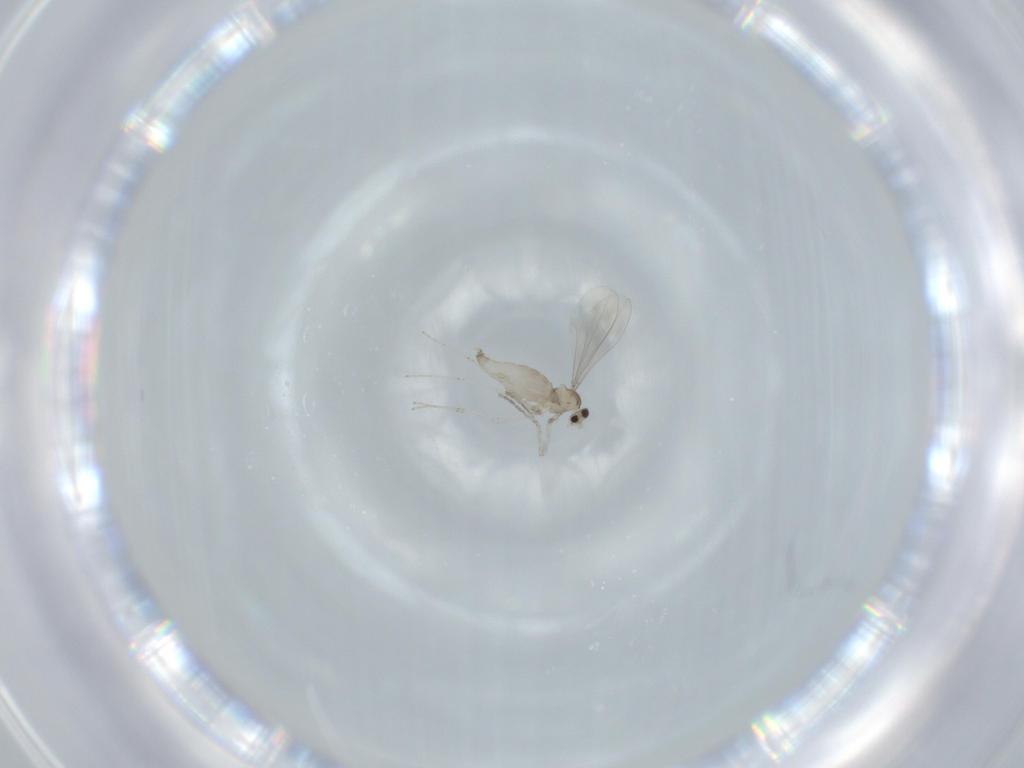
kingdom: Animalia
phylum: Arthropoda
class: Insecta
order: Diptera
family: Cecidomyiidae
